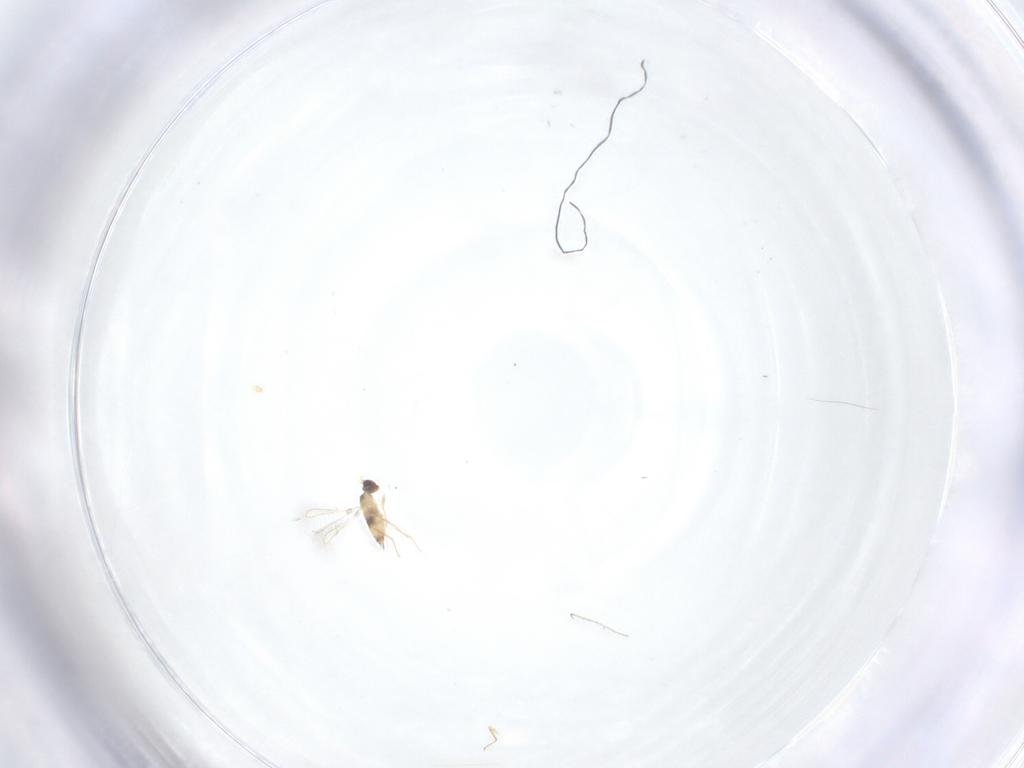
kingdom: Animalia
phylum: Arthropoda
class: Insecta
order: Hymenoptera
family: Mymaridae
